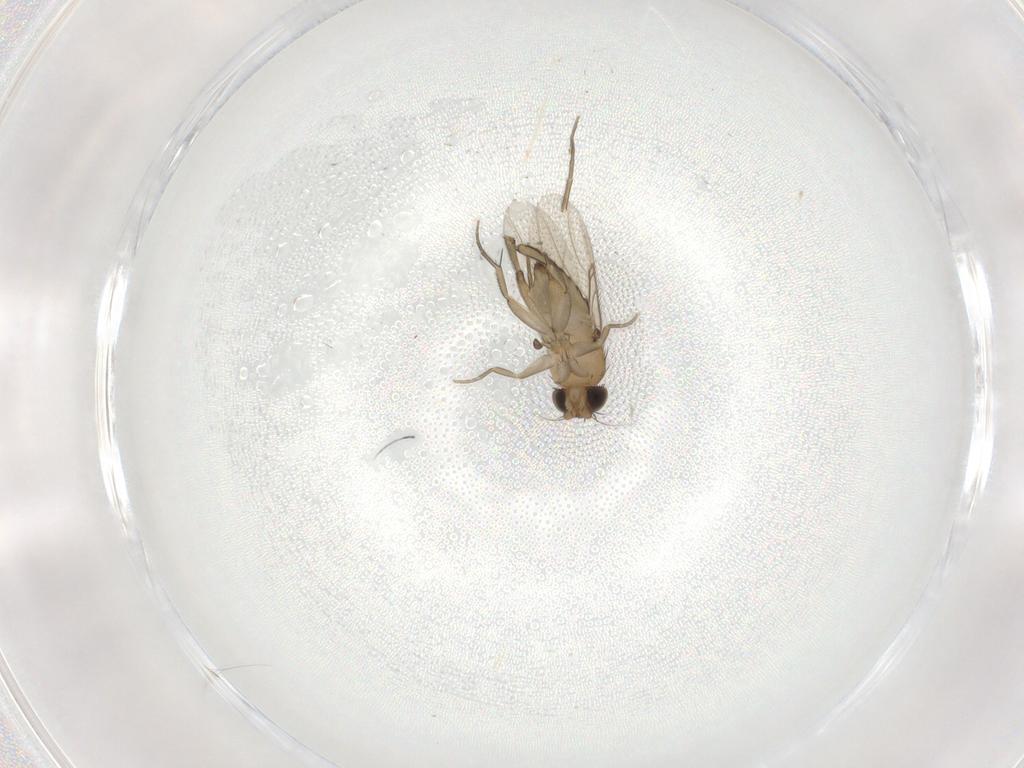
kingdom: Animalia
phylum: Arthropoda
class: Insecta
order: Diptera
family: Phoridae
